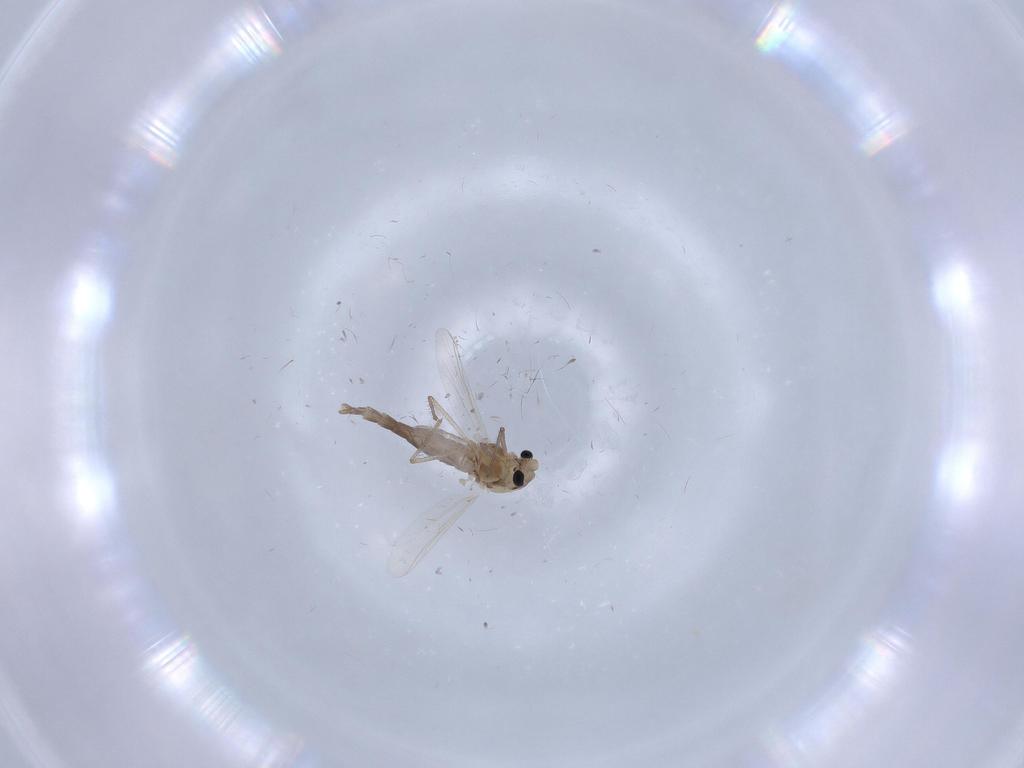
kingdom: Animalia
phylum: Arthropoda
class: Insecta
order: Diptera
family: Chironomidae
